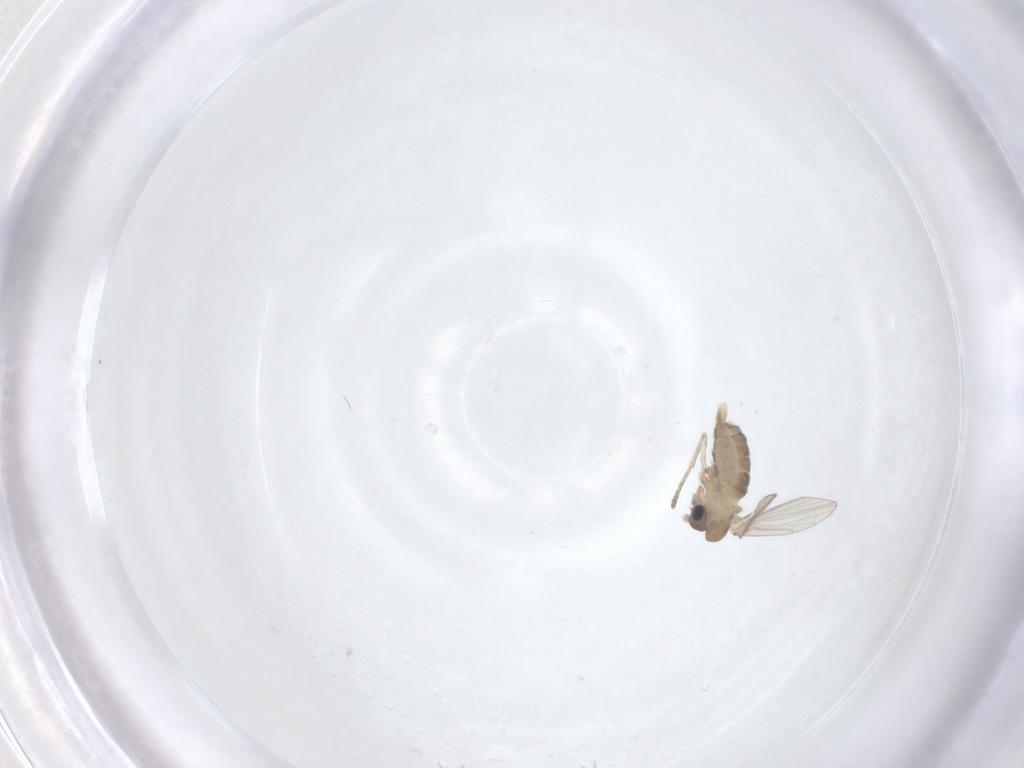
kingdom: Animalia
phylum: Arthropoda
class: Insecta
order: Diptera
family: Psychodidae
